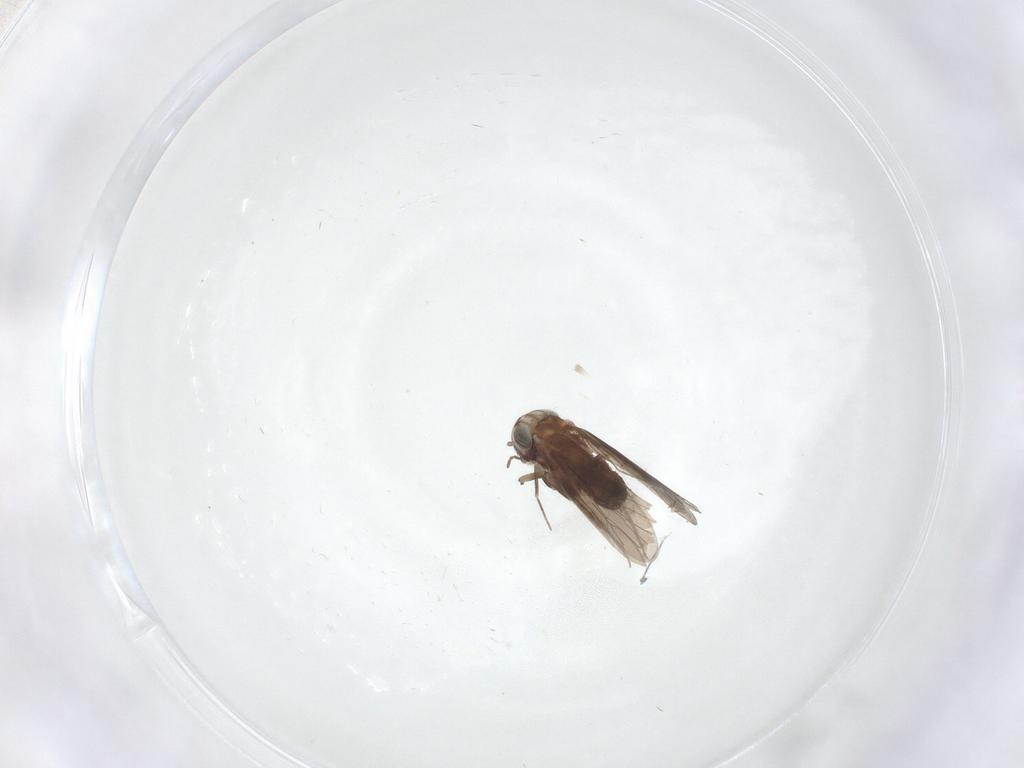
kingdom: Animalia
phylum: Arthropoda
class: Insecta
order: Psocodea
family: Amphientomidae
